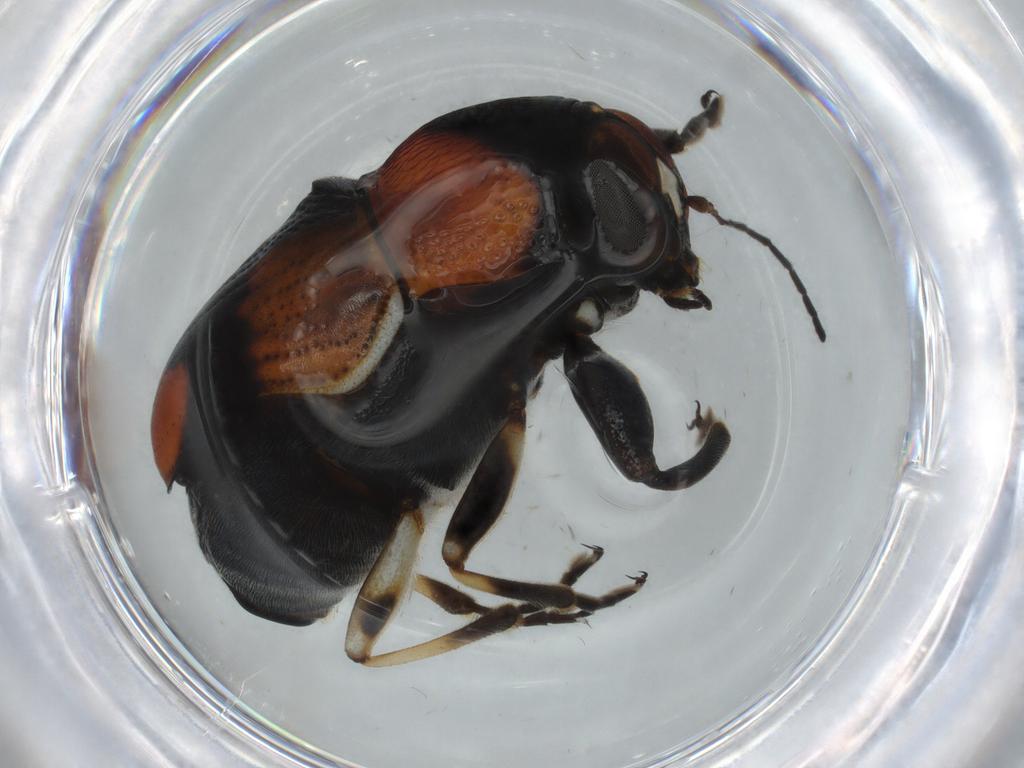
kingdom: Animalia
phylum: Arthropoda
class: Insecta
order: Coleoptera
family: Chrysomelidae
